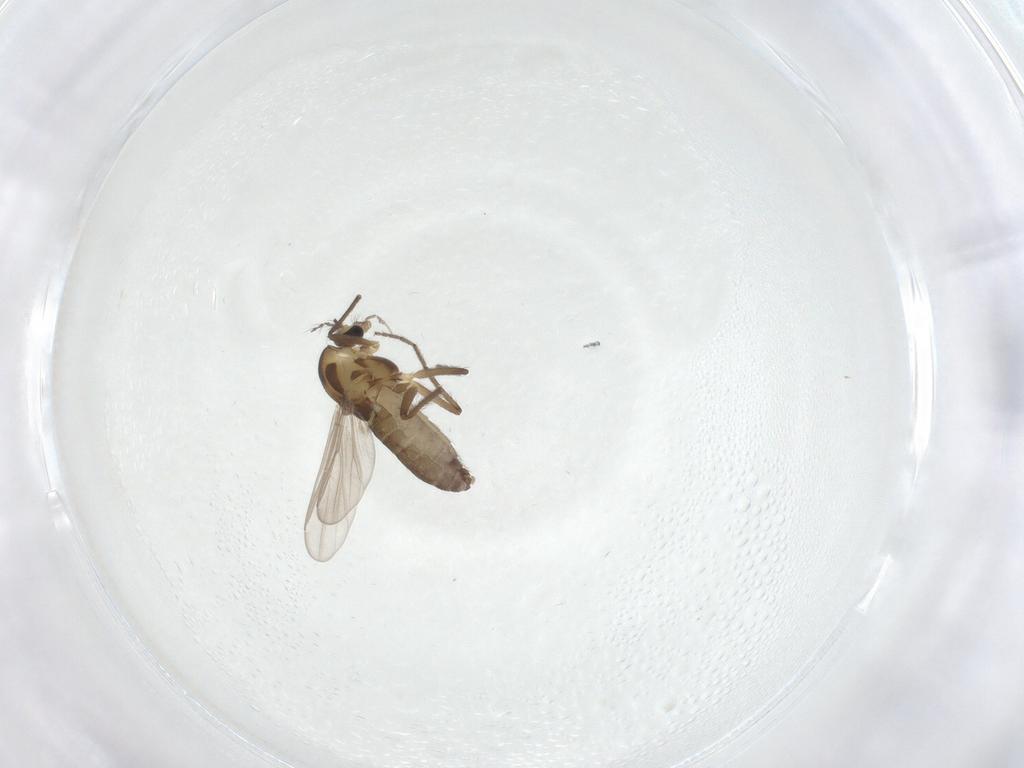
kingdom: Animalia
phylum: Arthropoda
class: Insecta
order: Diptera
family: Chironomidae
